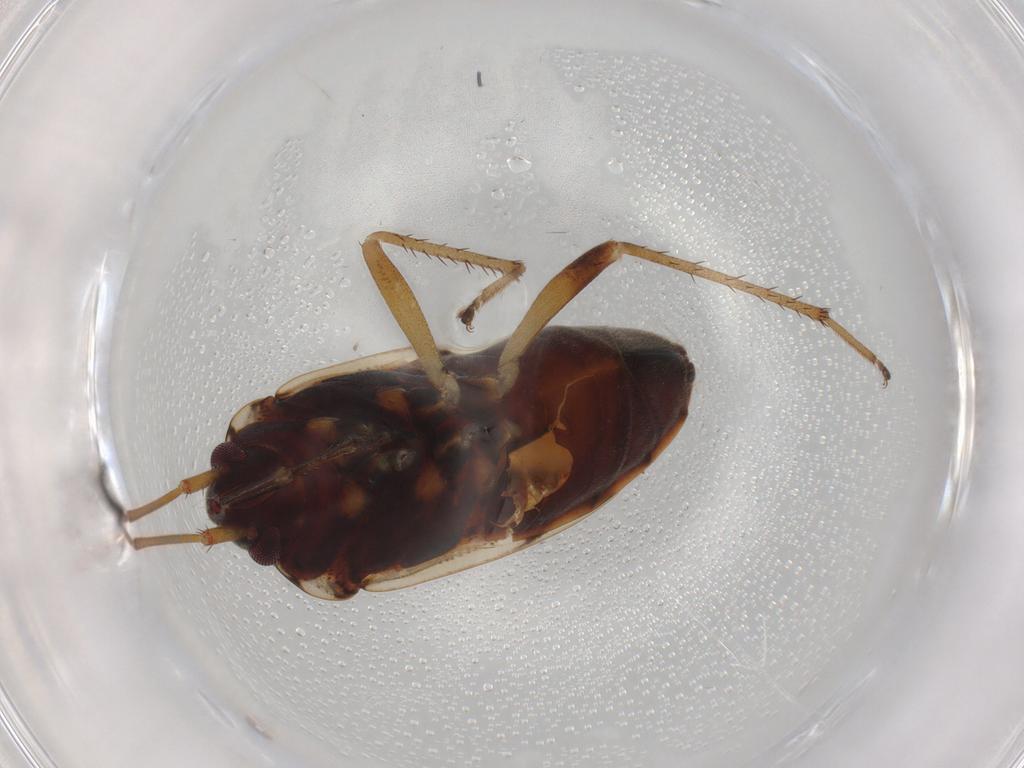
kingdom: Animalia
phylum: Arthropoda
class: Insecta
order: Hemiptera
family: Rhyparochromidae
